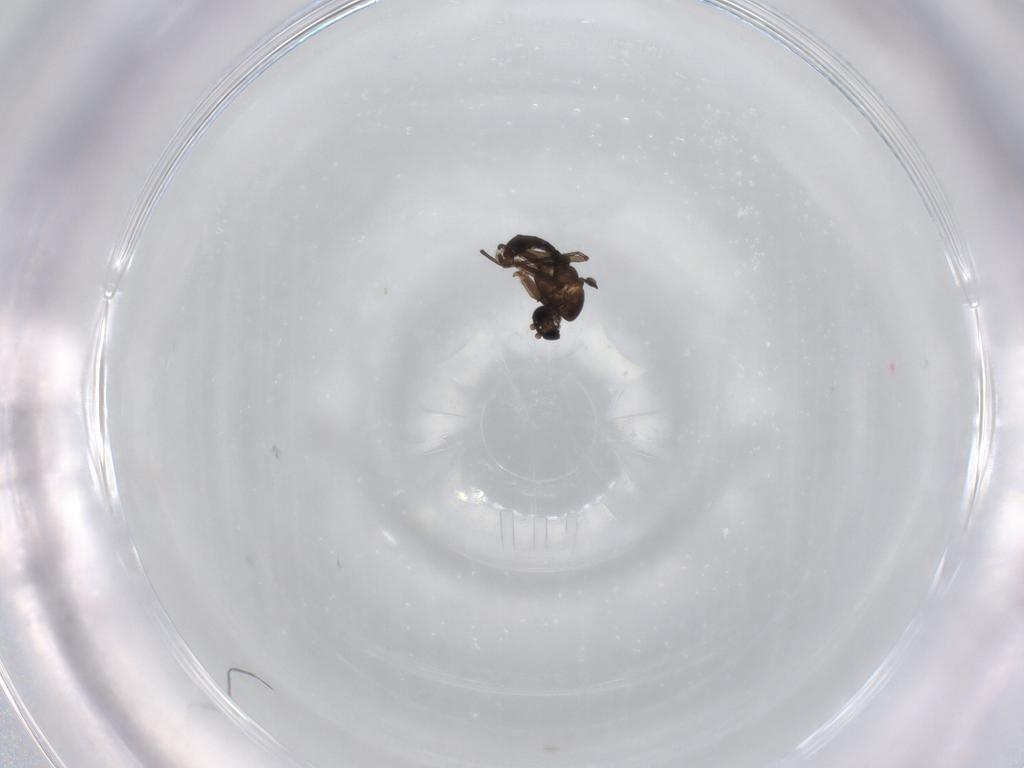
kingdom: Animalia
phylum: Arthropoda
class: Insecta
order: Diptera
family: Sciaridae
